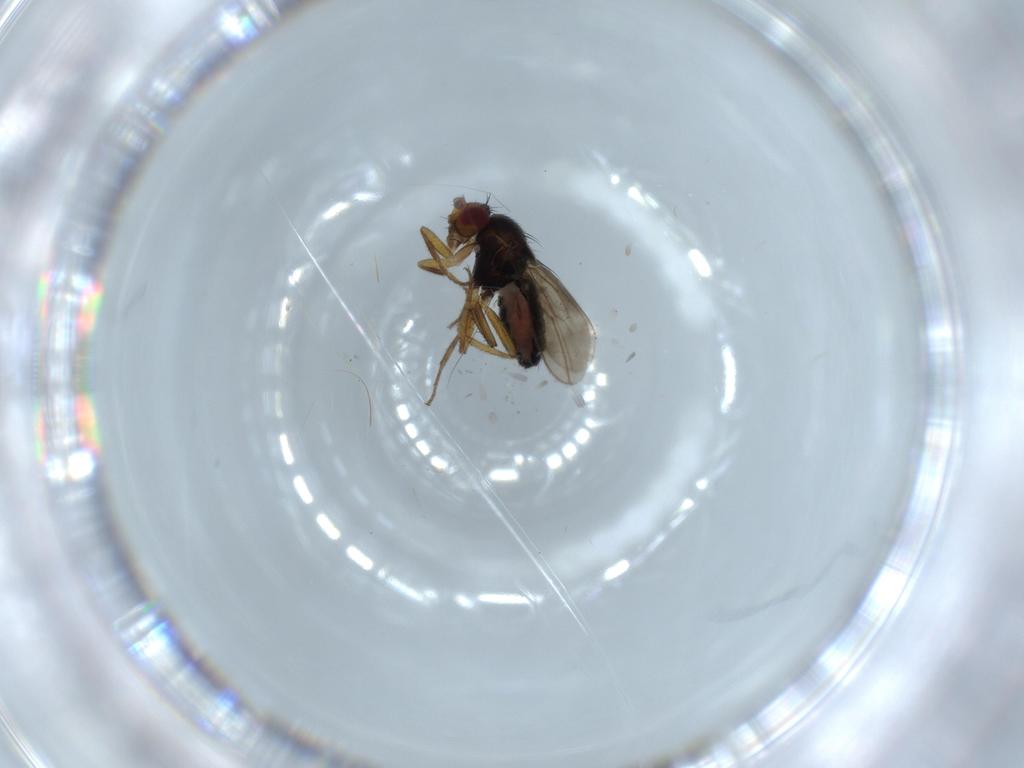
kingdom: Animalia
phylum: Arthropoda
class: Insecta
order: Diptera
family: Sphaeroceridae
